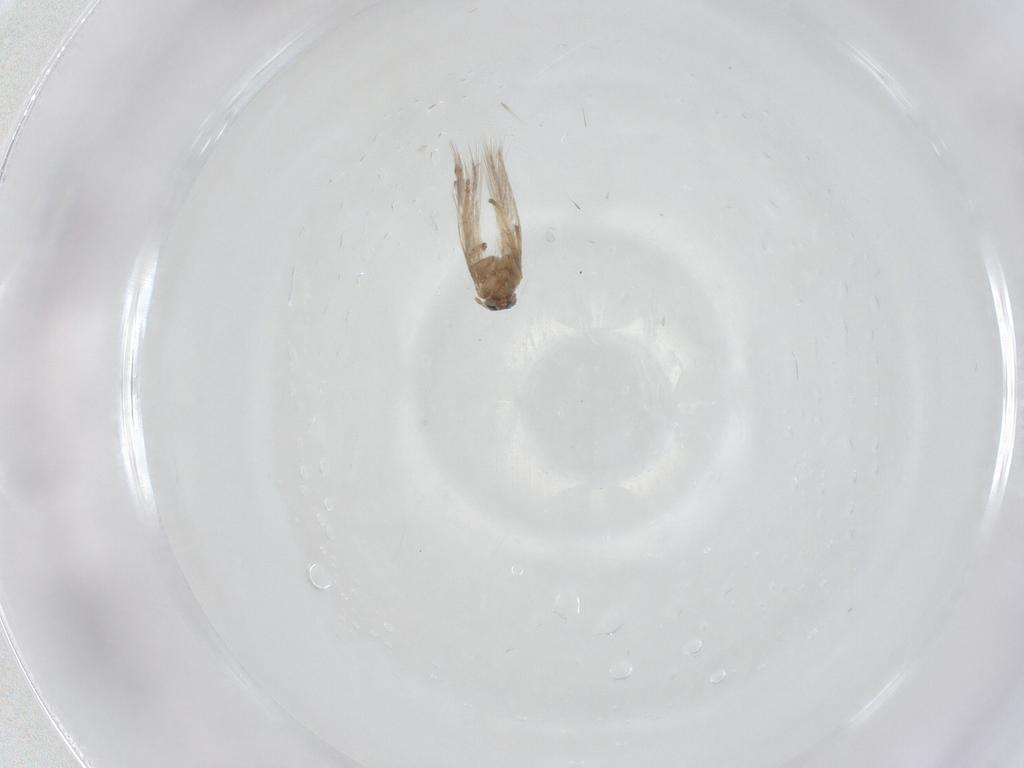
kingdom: Animalia
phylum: Arthropoda
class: Insecta
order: Lepidoptera
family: Nepticulidae
